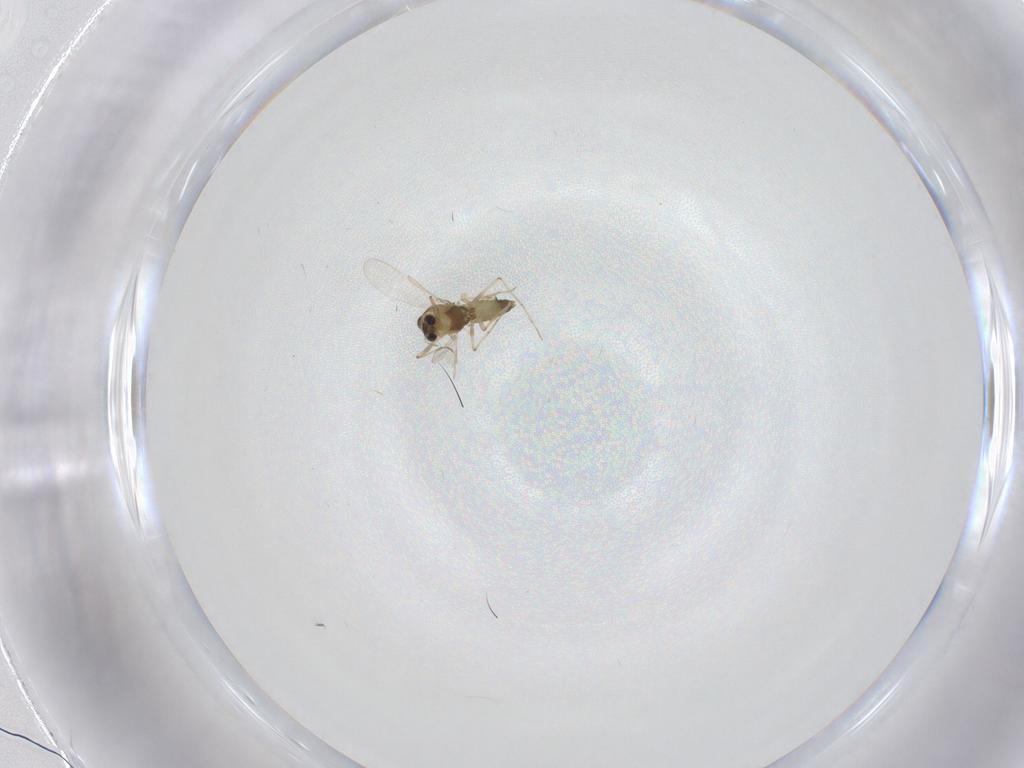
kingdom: Animalia
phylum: Arthropoda
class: Insecta
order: Diptera
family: Chironomidae
